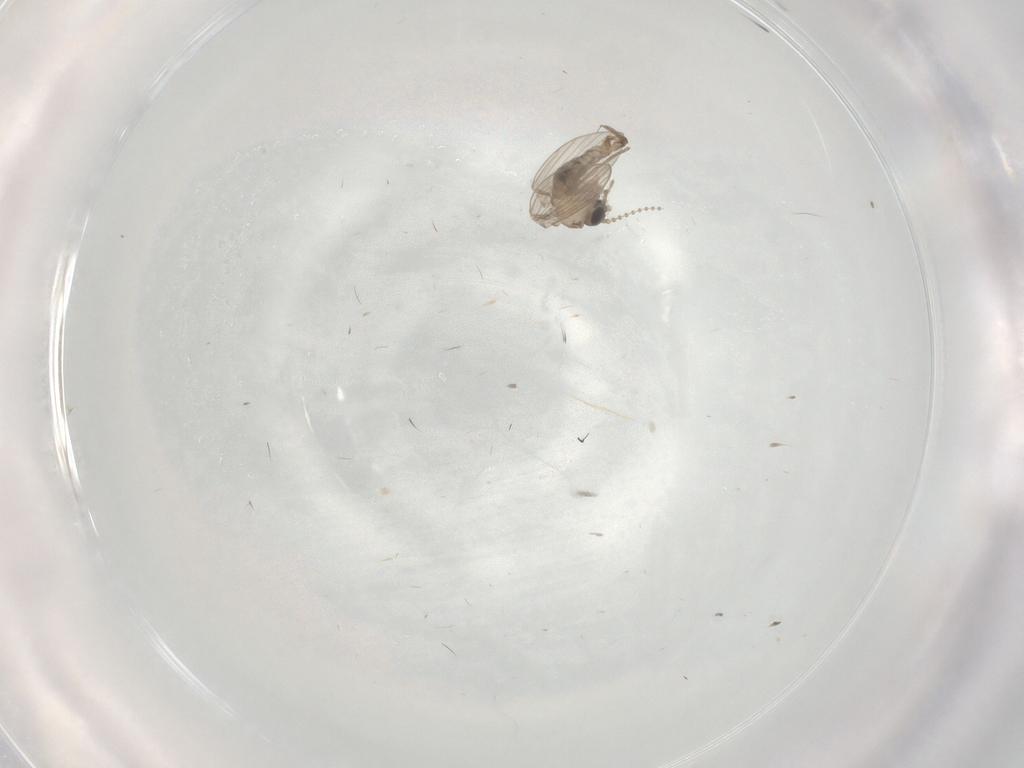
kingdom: Animalia
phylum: Arthropoda
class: Insecta
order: Diptera
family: Psychodidae
